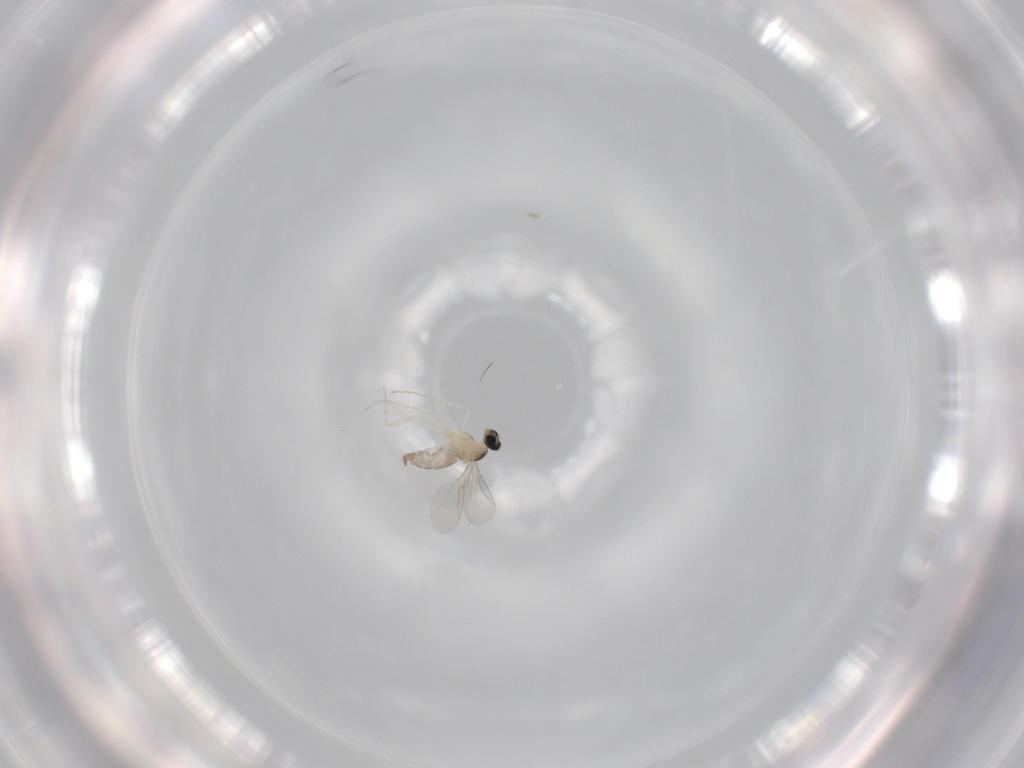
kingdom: Animalia
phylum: Arthropoda
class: Insecta
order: Diptera
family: Cecidomyiidae
